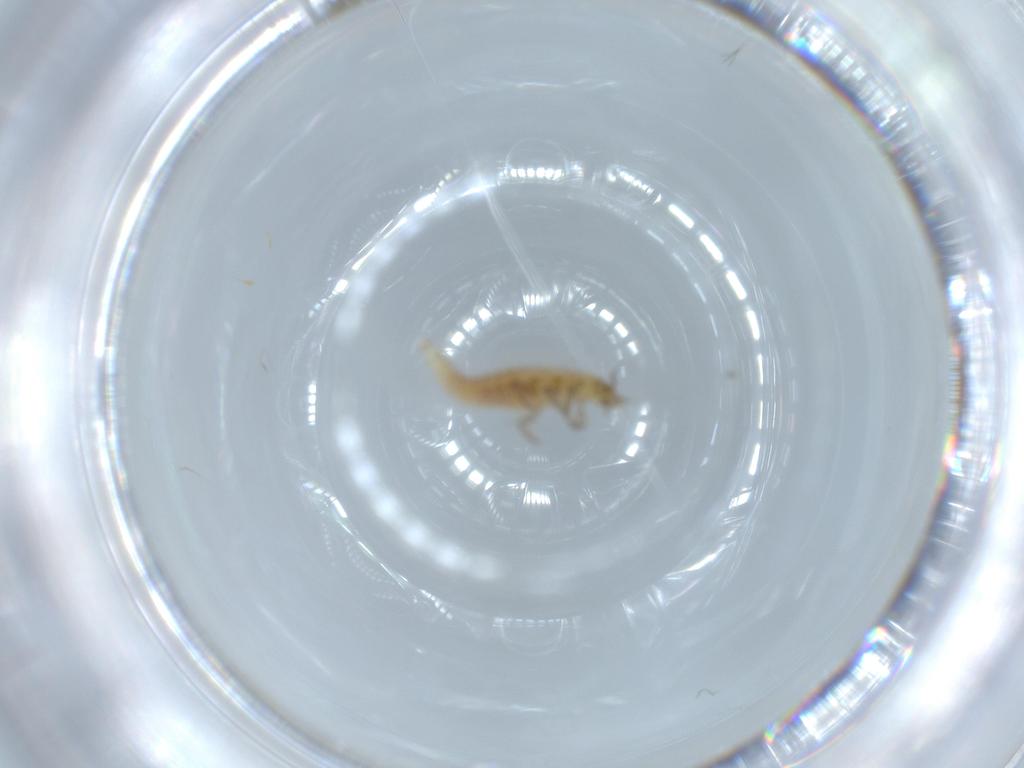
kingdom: Animalia
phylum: Arthropoda
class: Insecta
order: Neuroptera
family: Hemerobiidae
